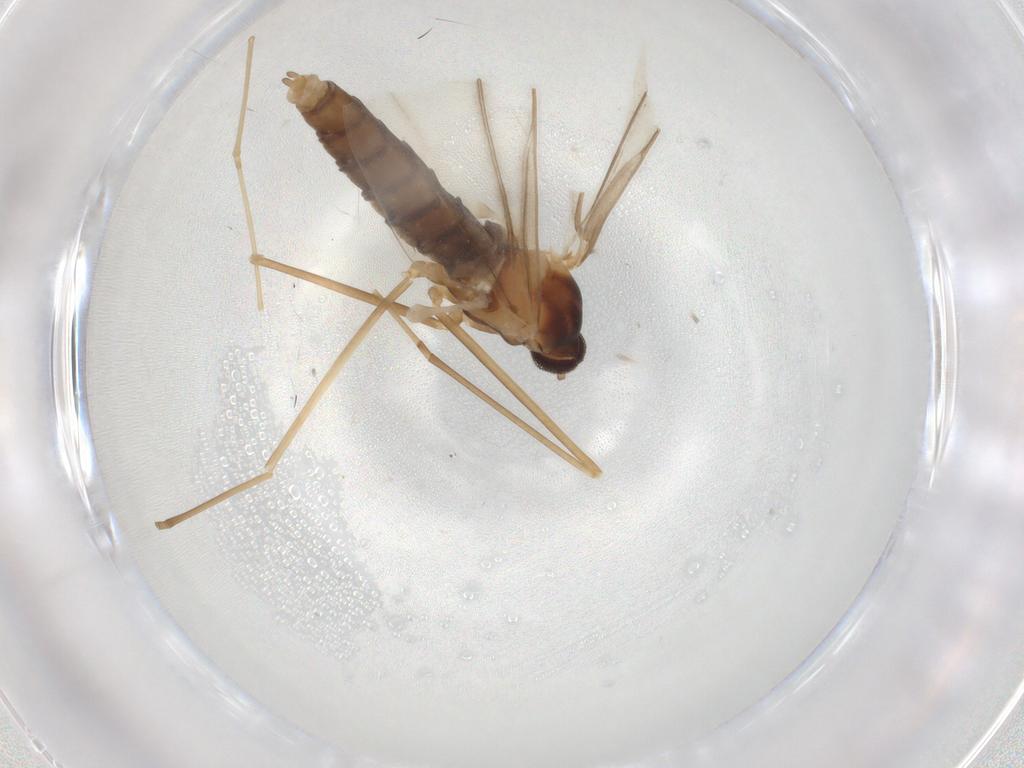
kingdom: Animalia
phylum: Arthropoda
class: Insecta
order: Diptera
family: Cecidomyiidae
